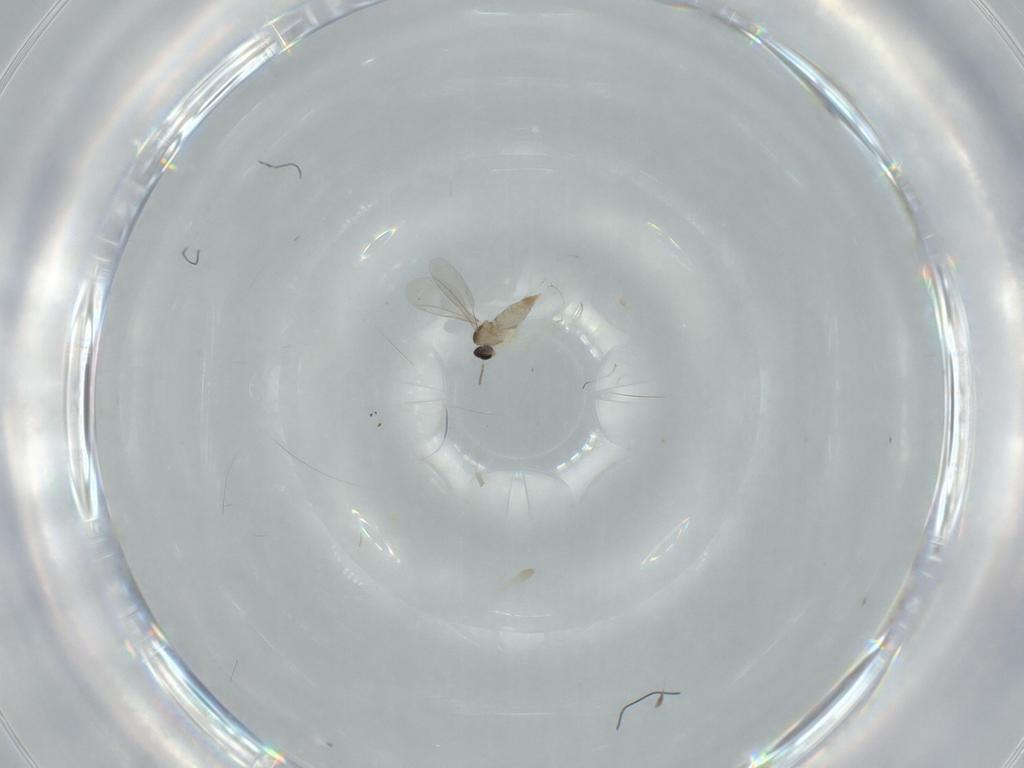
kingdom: Animalia
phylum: Arthropoda
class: Insecta
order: Diptera
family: Cecidomyiidae
